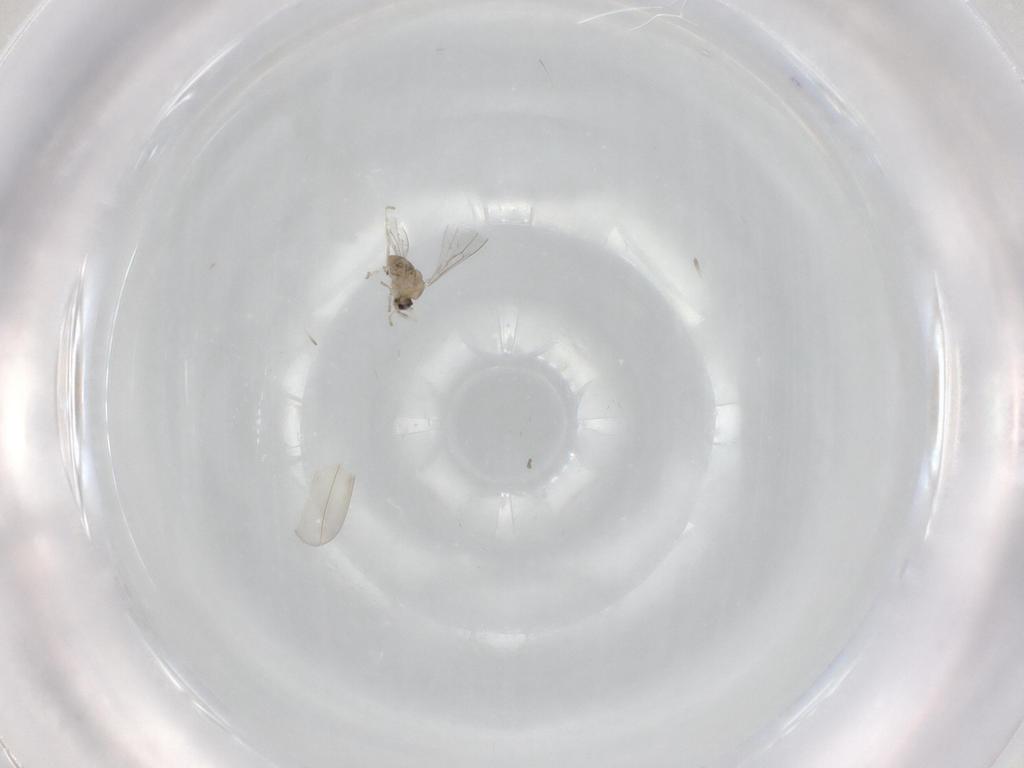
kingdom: Animalia
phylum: Arthropoda
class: Insecta
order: Diptera
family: Cecidomyiidae
